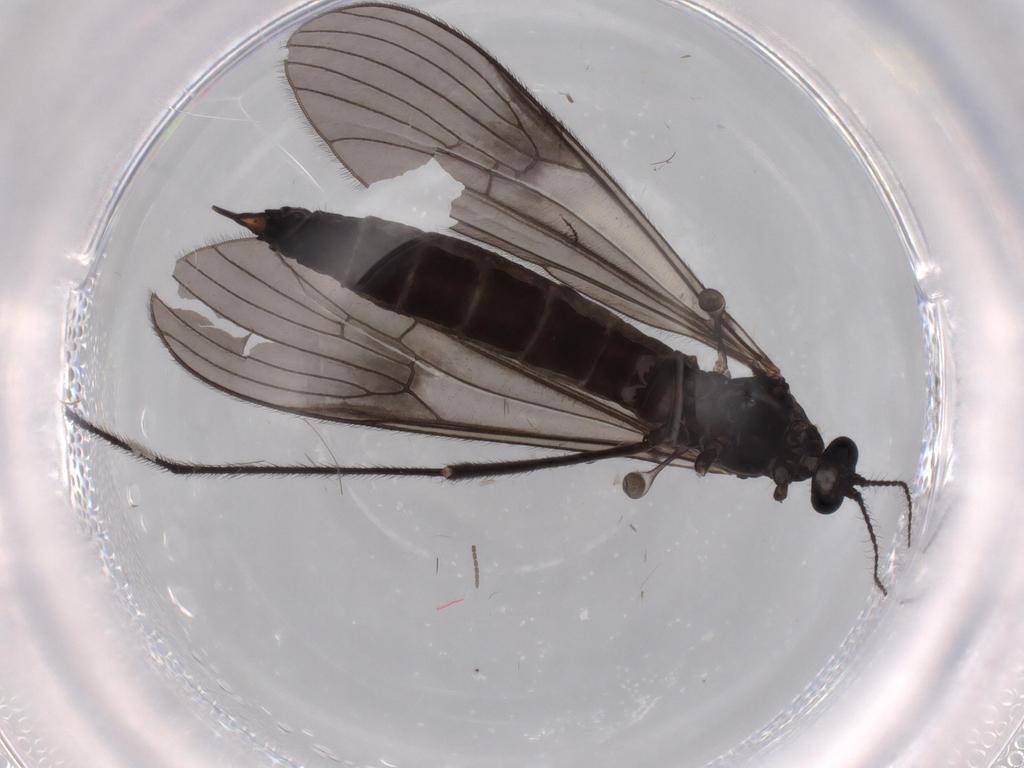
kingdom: Animalia
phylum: Arthropoda
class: Insecta
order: Diptera
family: Limoniidae
